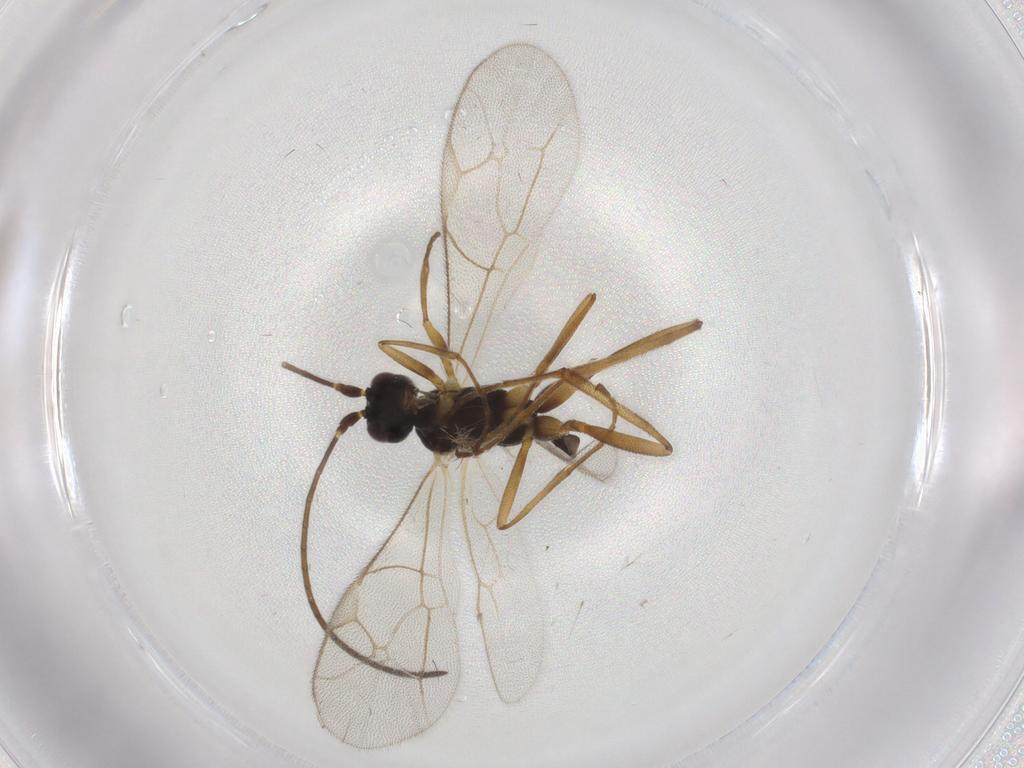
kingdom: Animalia
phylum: Arthropoda
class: Insecta
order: Hymenoptera
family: Ichneumonidae
